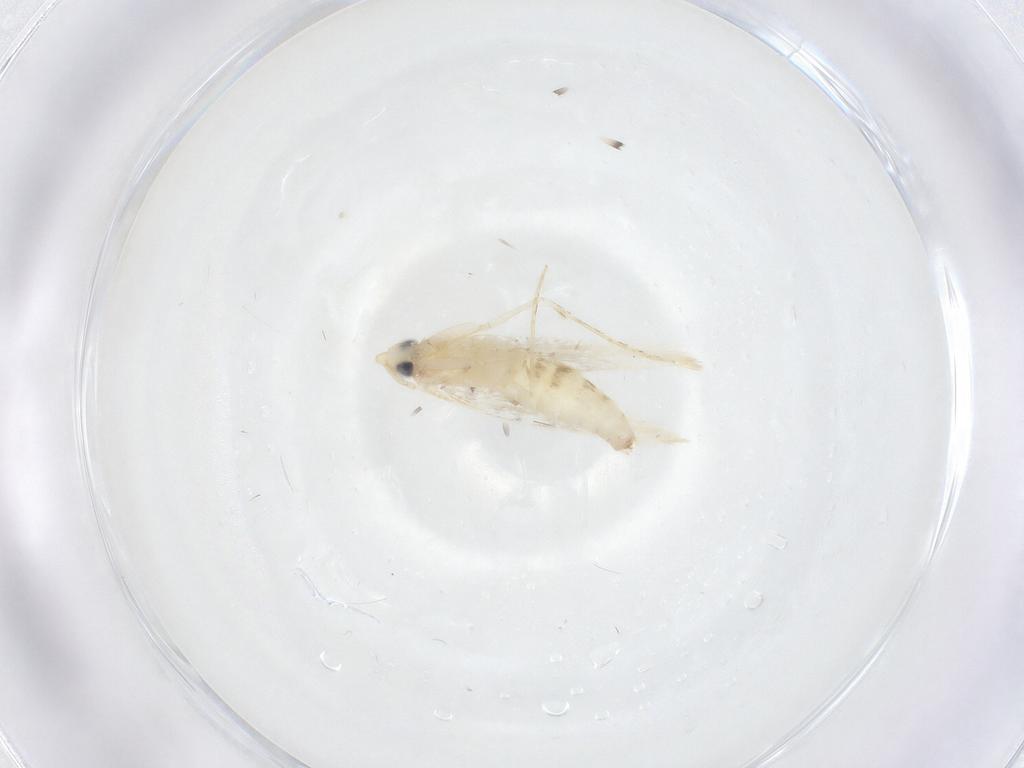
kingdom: Animalia
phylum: Arthropoda
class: Insecta
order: Lepidoptera
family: Tineidae
